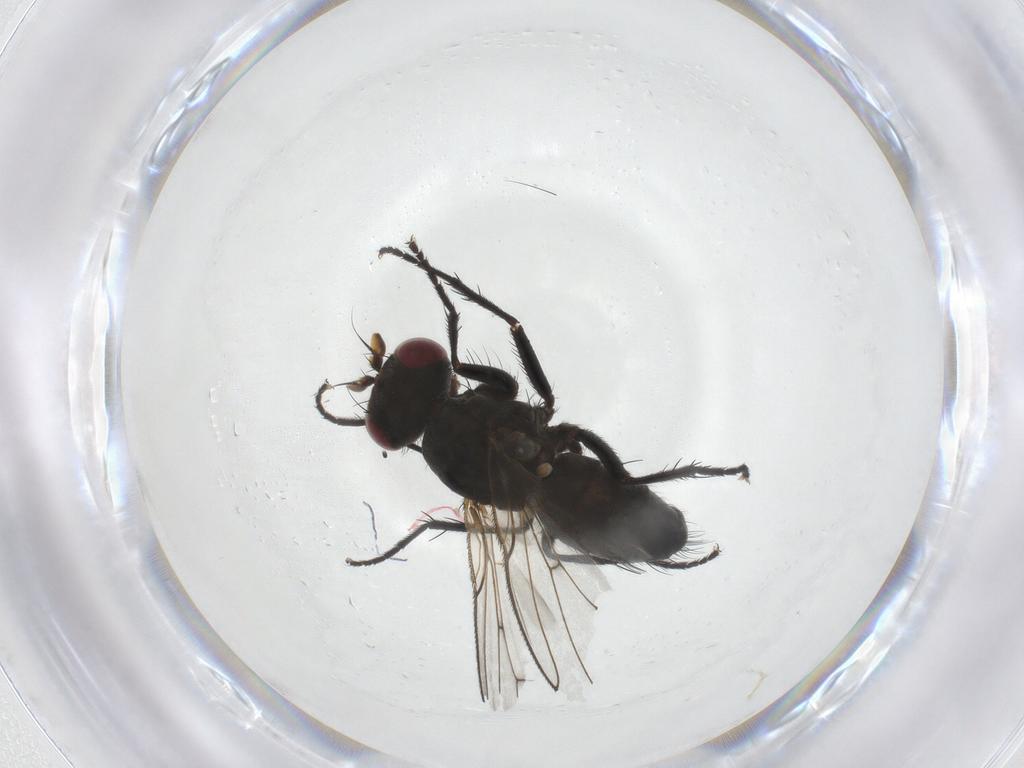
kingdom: Animalia
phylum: Arthropoda
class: Insecta
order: Diptera
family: Muscidae
